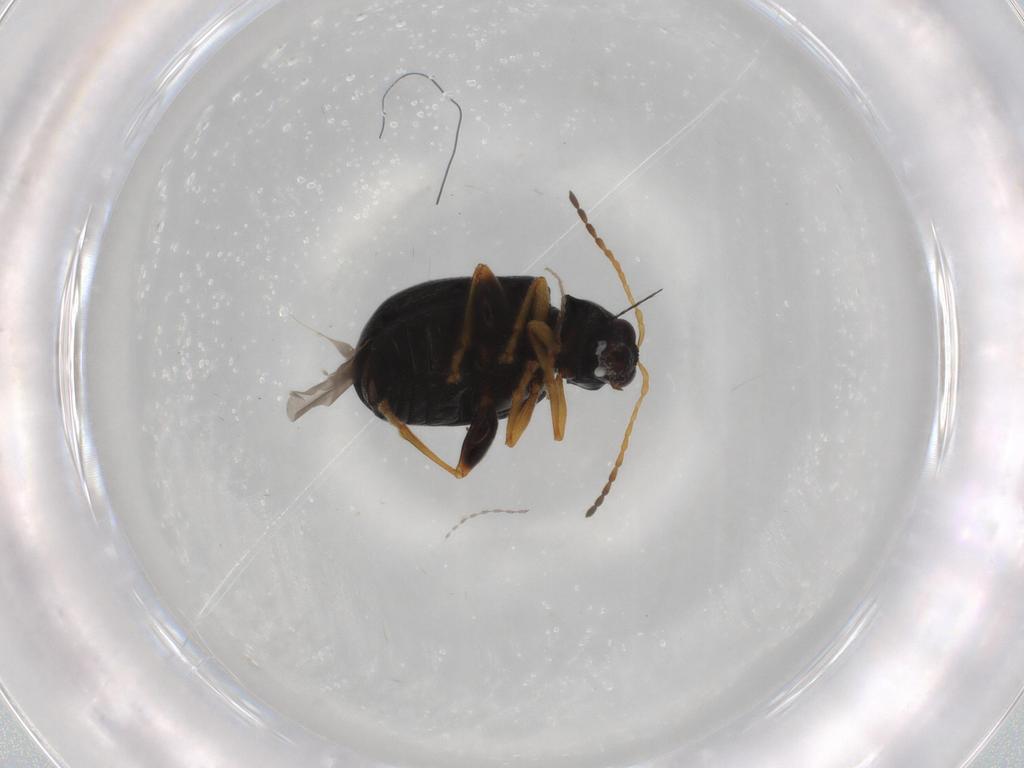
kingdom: Animalia
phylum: Arthropoda
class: Insecta
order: Coleoptera
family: Chrysomelidae
